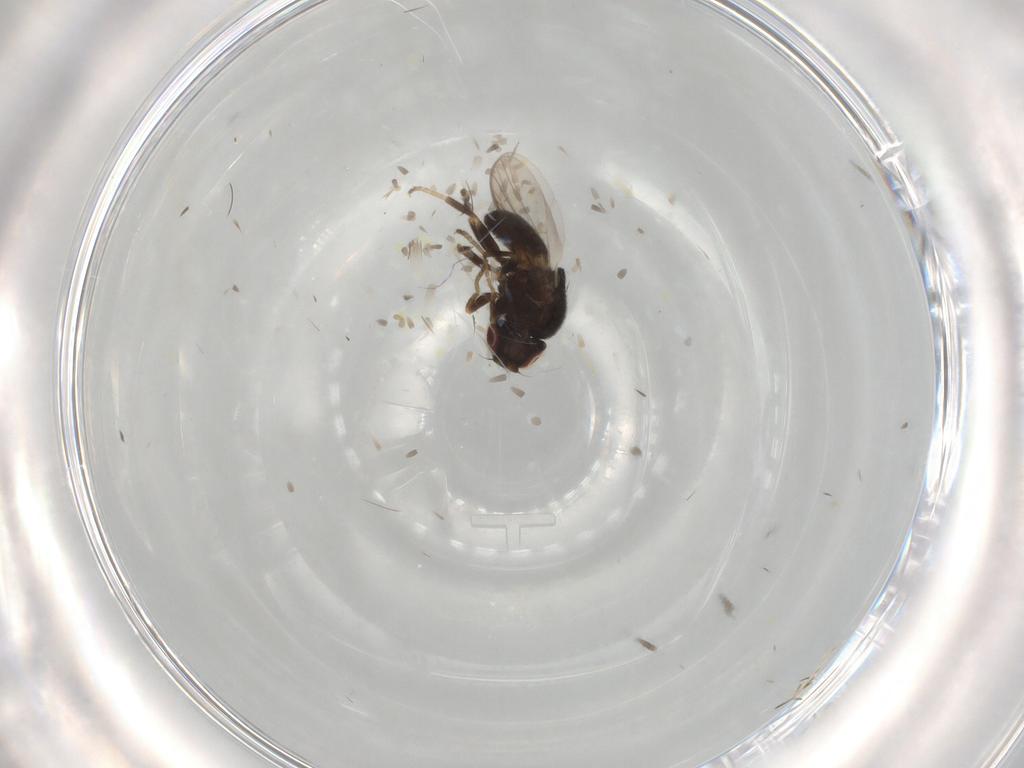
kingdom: Animalia
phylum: Arthropoda
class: Insecta
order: Diptera
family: Chloropidae
